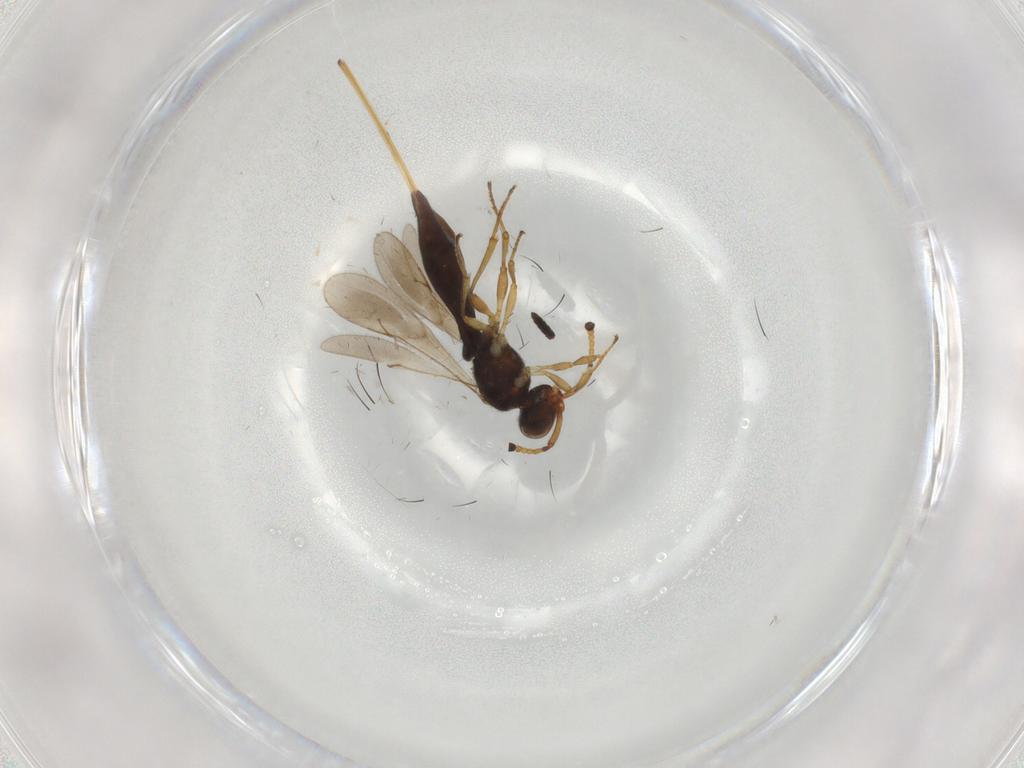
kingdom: Animalia
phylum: Arthropoda
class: Insecta
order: Hymenoptera
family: Scelionidae
